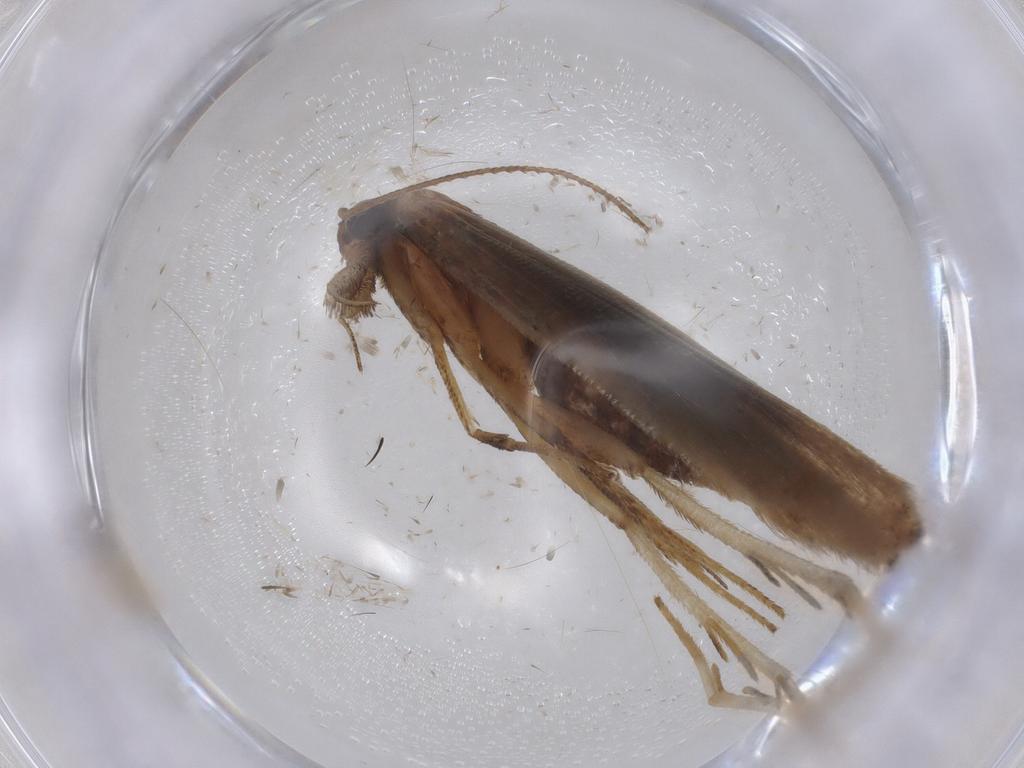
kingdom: Animalia
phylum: Arthropoda
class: Insecta
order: Lepidoptera
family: Gelechiidae
